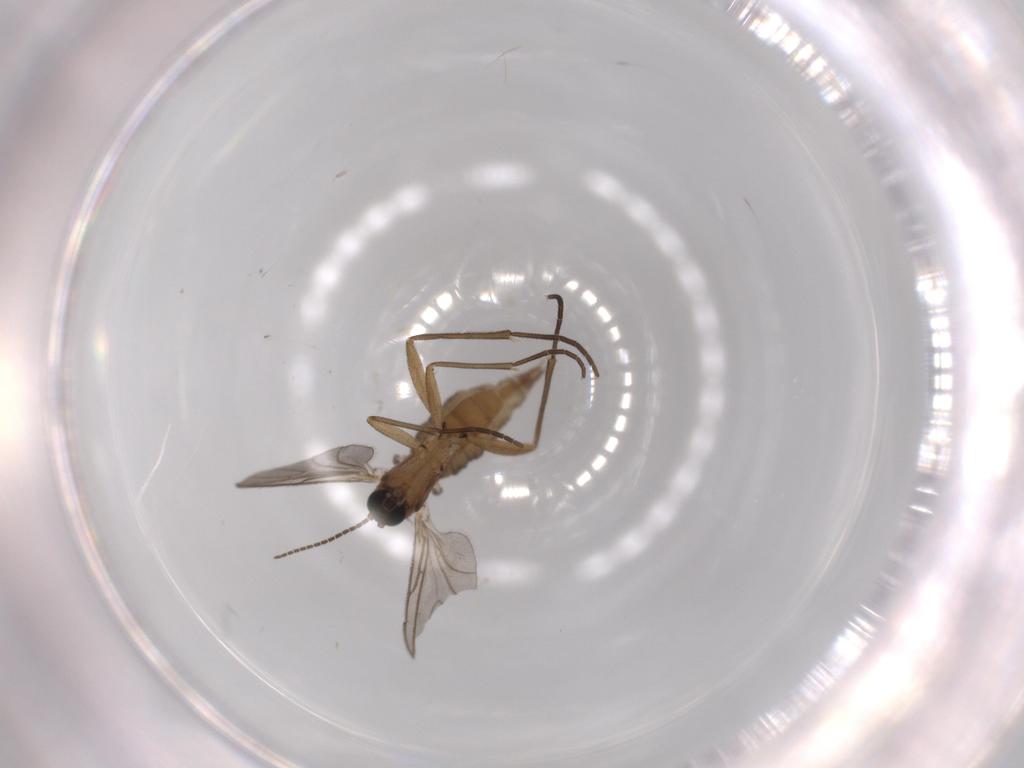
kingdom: Animalia
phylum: Arthropoda
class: Insecta
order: Diptera
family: Sciaridae
